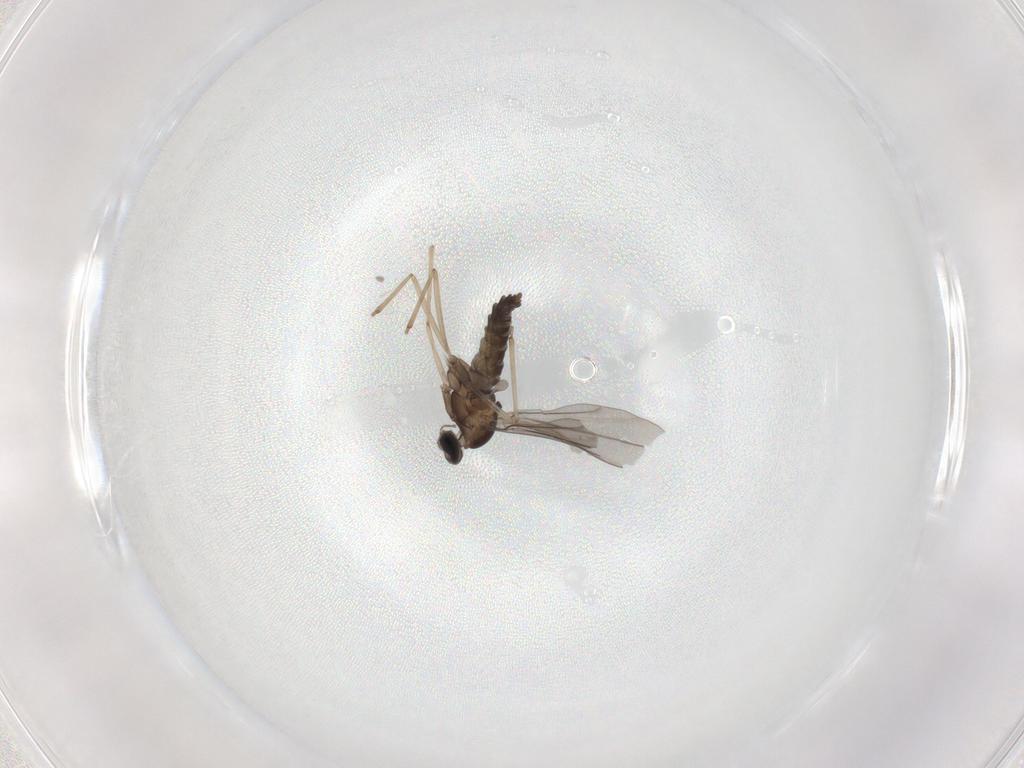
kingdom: Animalia
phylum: Arthropoda
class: Insecta
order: Diptera
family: Cecidomyiidae
